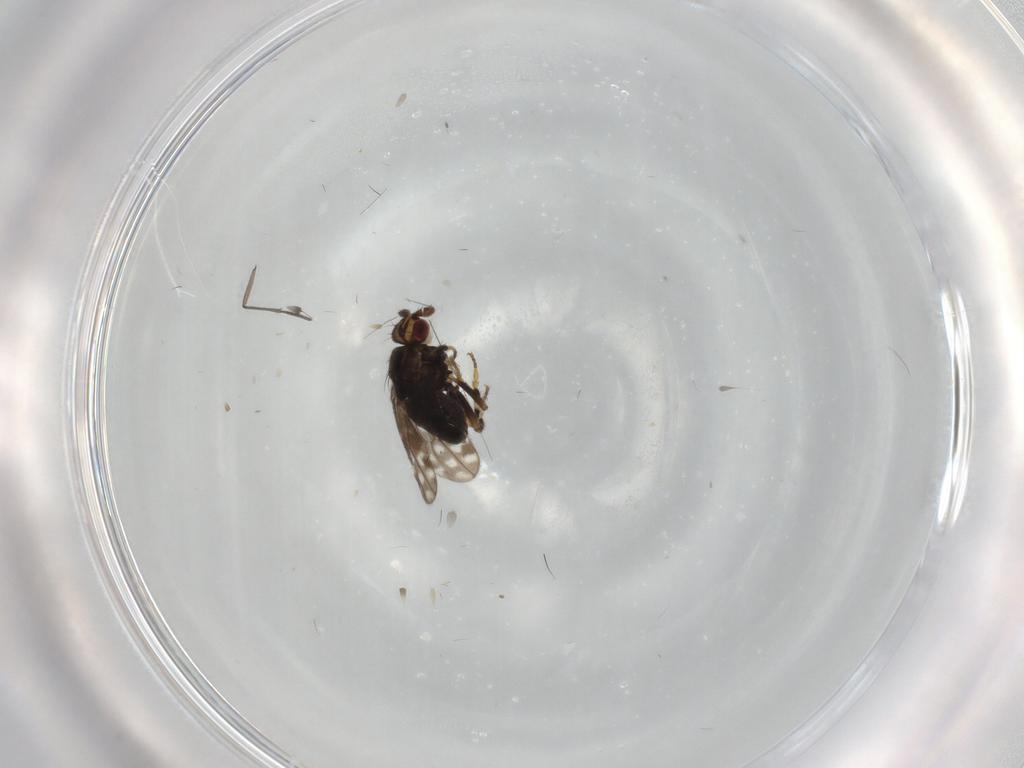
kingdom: Animalia
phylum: Arthropoda
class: Insecta
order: Diptera
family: Sphaeroceridae
